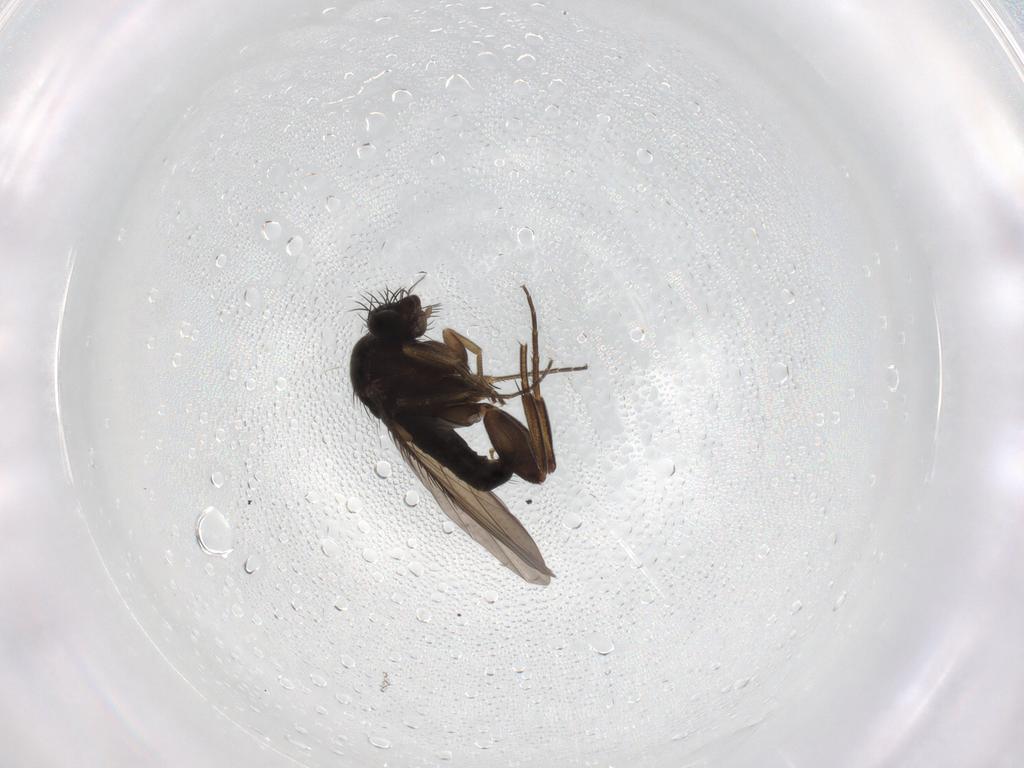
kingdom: Animalia
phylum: Arthropoda
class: Insecta
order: Diptera
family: Phoridae
